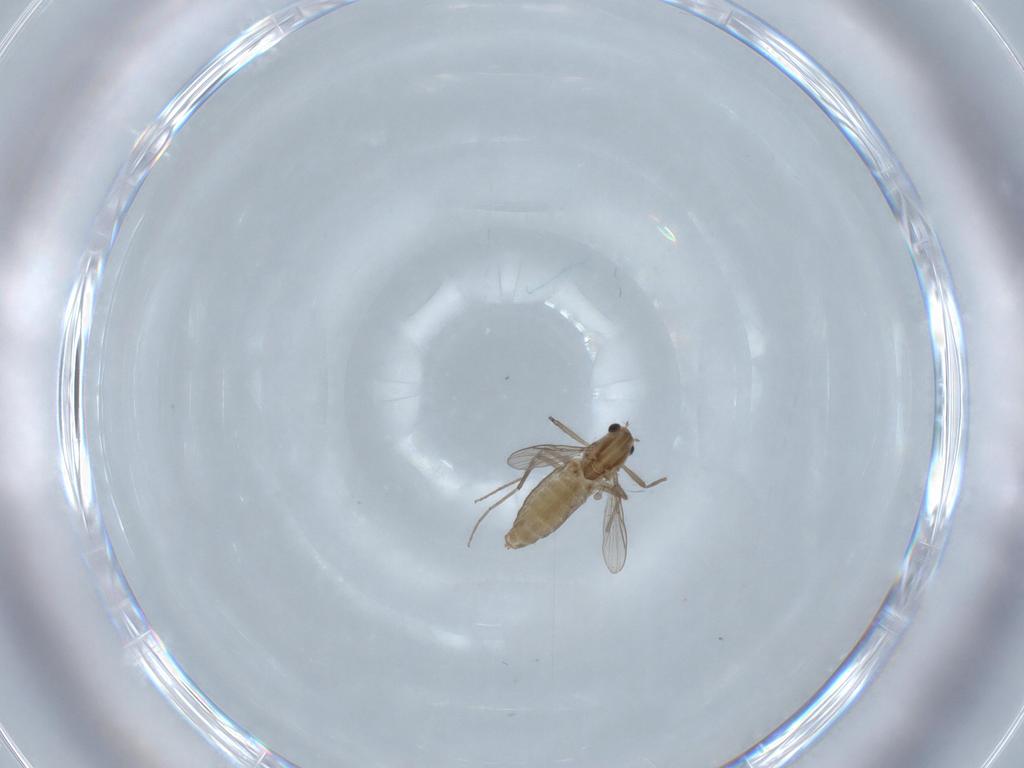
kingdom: Animalia
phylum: Arthropoda
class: Insecta
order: Diptera
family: Chironomidae
